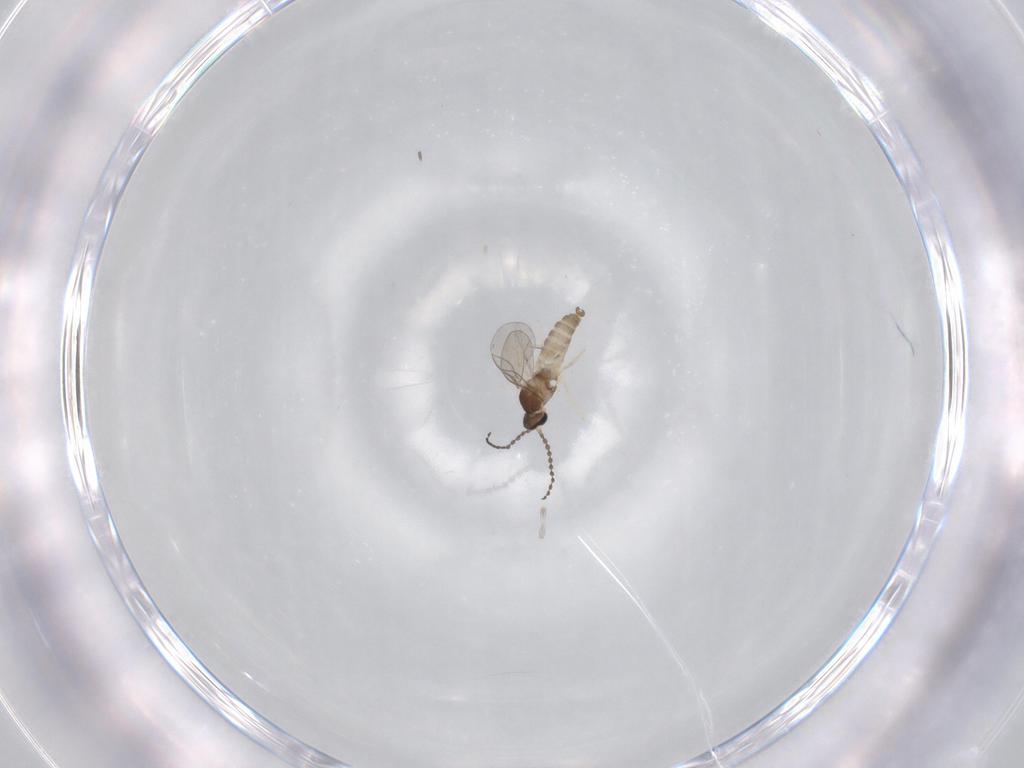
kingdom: Animalia
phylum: Arthropoda
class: Insecta
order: Diptera
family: Cecidomyiidae
